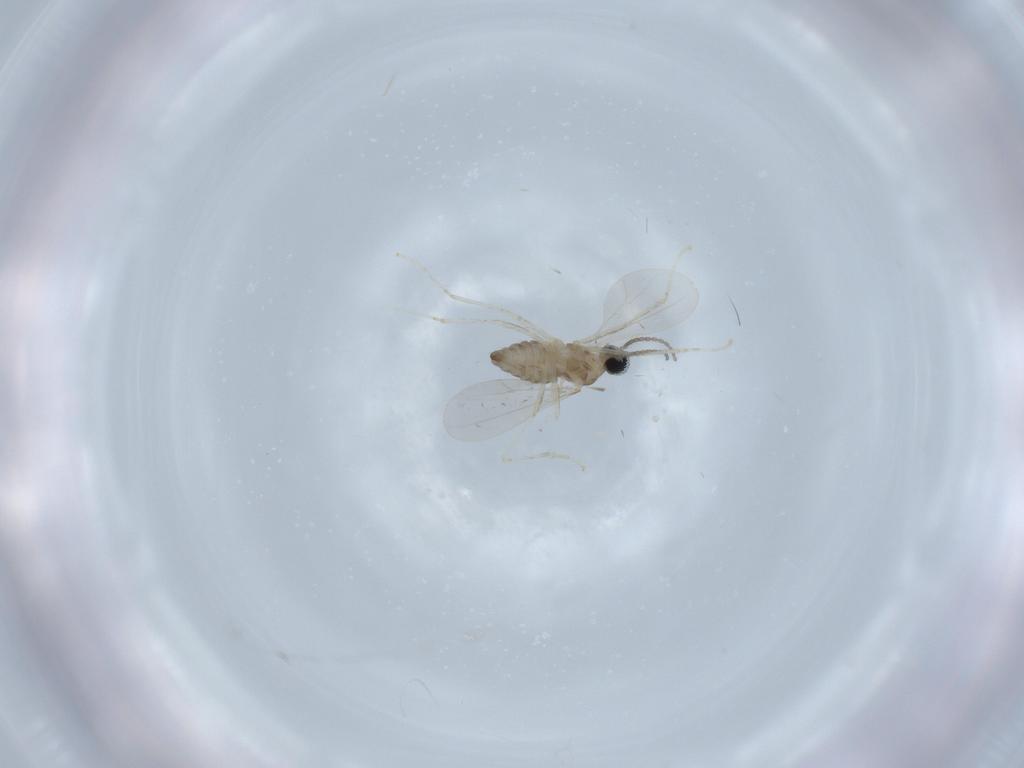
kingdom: Animalia
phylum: Arthropoda
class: Insecta
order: Diptera
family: Cecidomyiidae
